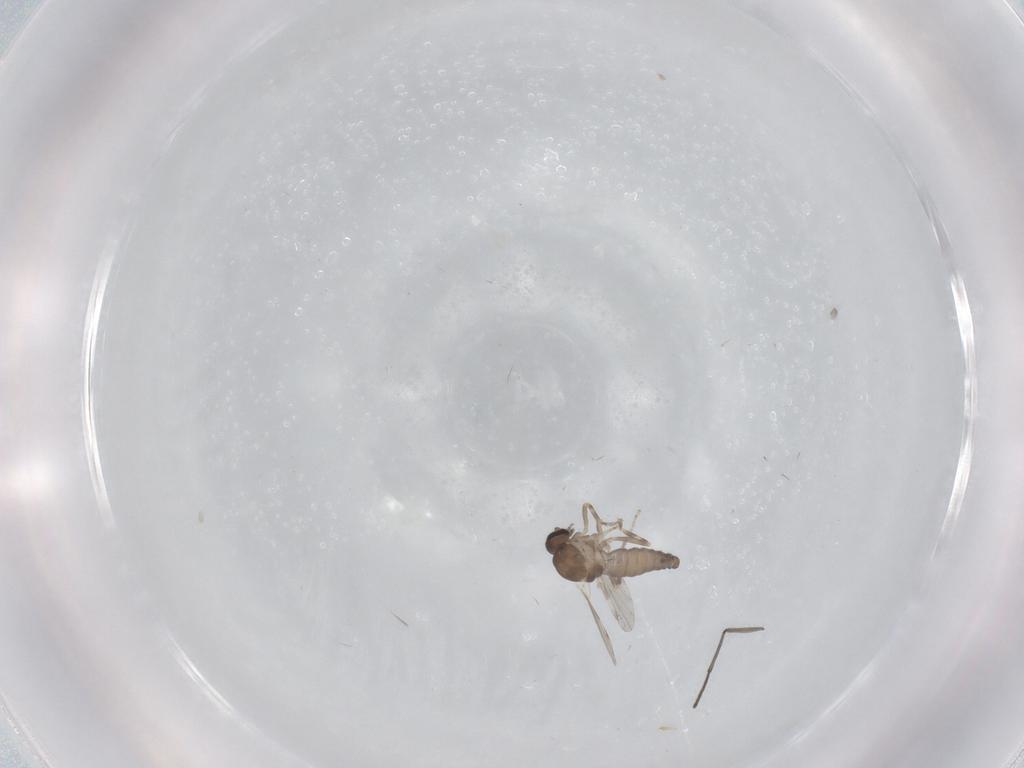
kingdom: Animalia
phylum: Arthropoda
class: Insecta
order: Diptera
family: Ceratopogonidae
